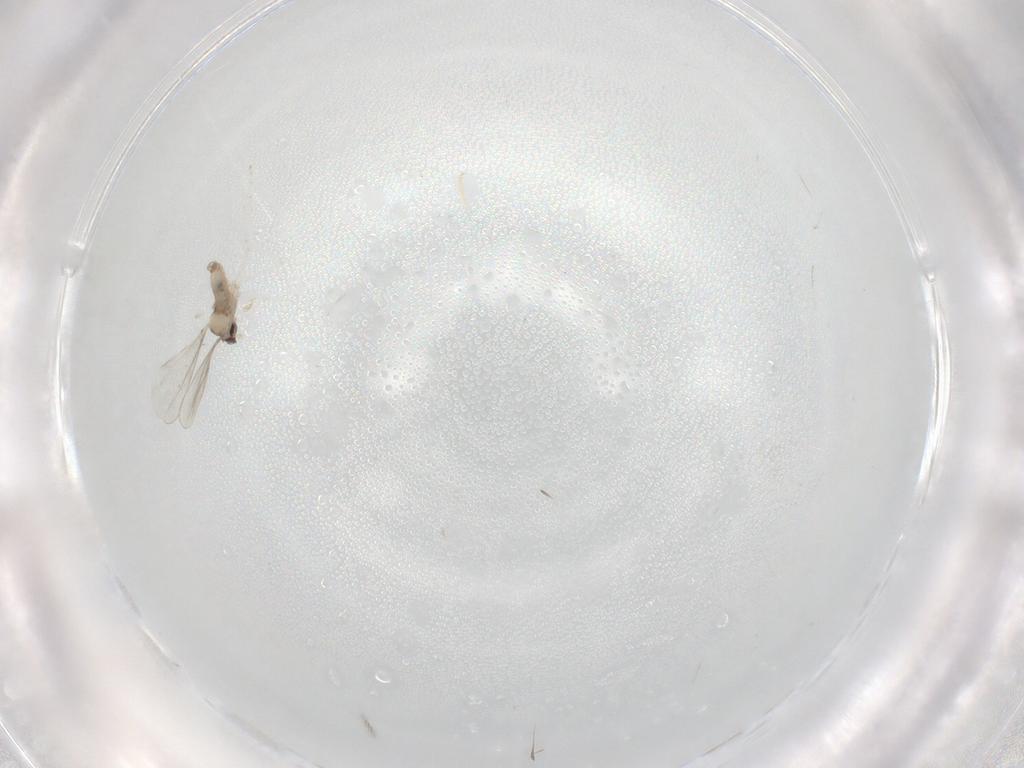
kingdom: Animalia
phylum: Arthropoda
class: Insecta
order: Diptera
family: Cecidomyiidae
